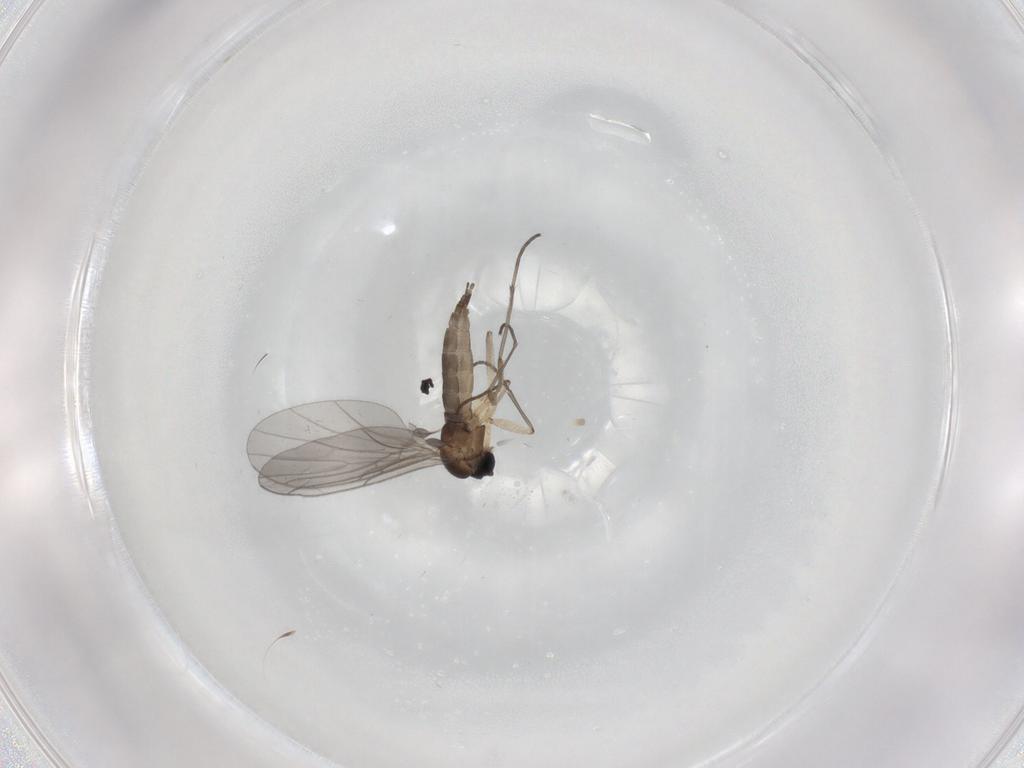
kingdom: Animalia
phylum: Arthropoda
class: Insecta
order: Diptera
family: Sciaridae
